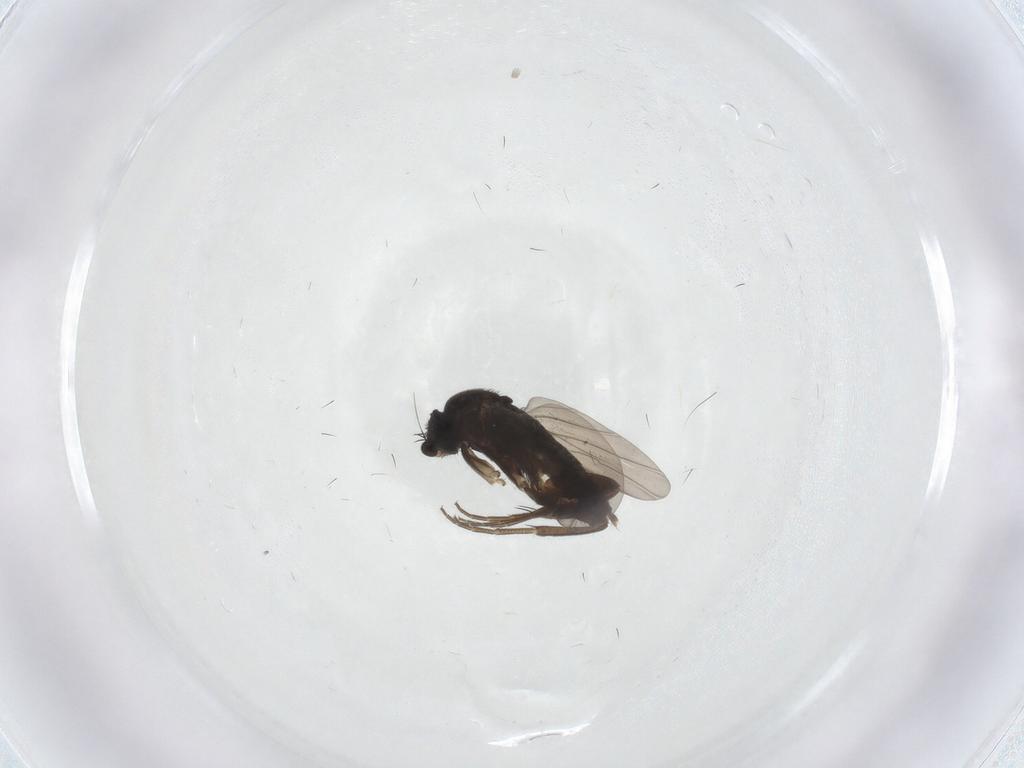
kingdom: Animalia
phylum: Arthropoda
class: Insecta
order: Diptera
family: Phoridae
